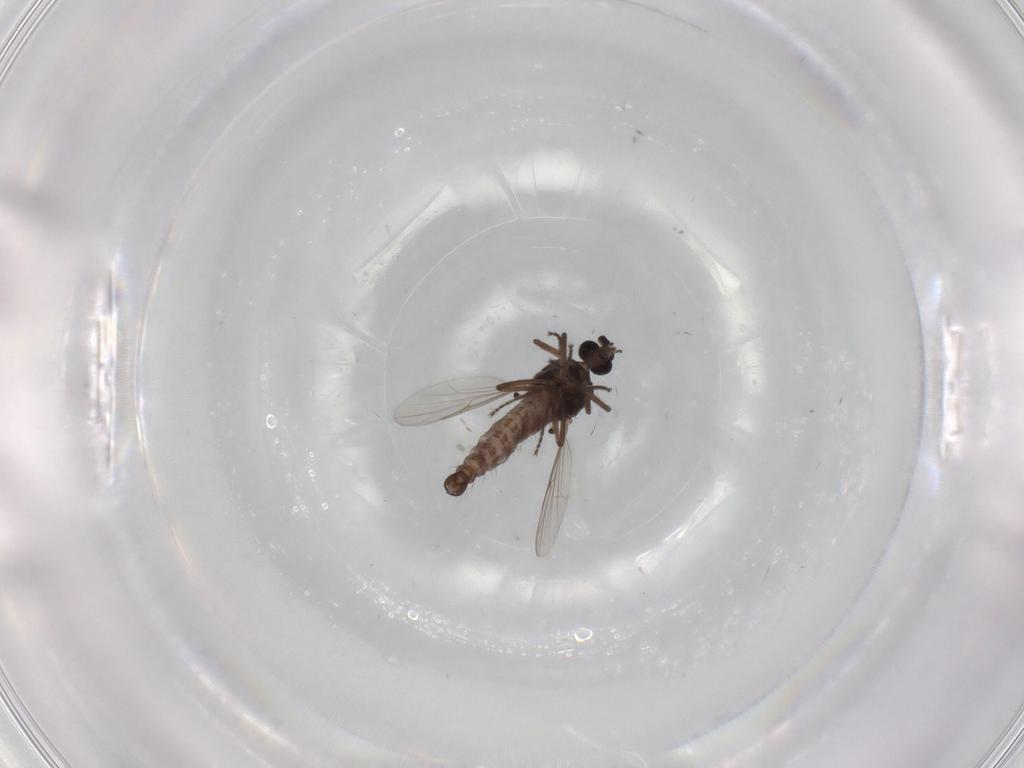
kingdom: Animalia
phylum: Arthropoda
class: Insecta
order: Diptera
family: Ceratopogonidae
